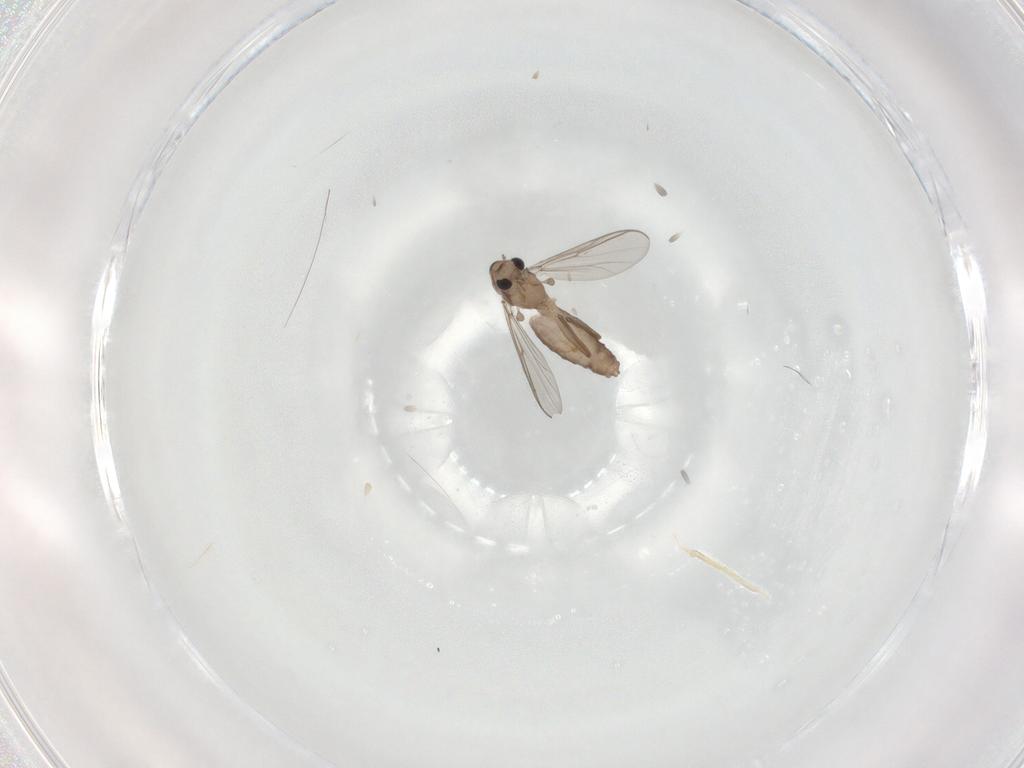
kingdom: Animalia
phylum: Arthropoda
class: Insecta
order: Diptera
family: Chironomidae
